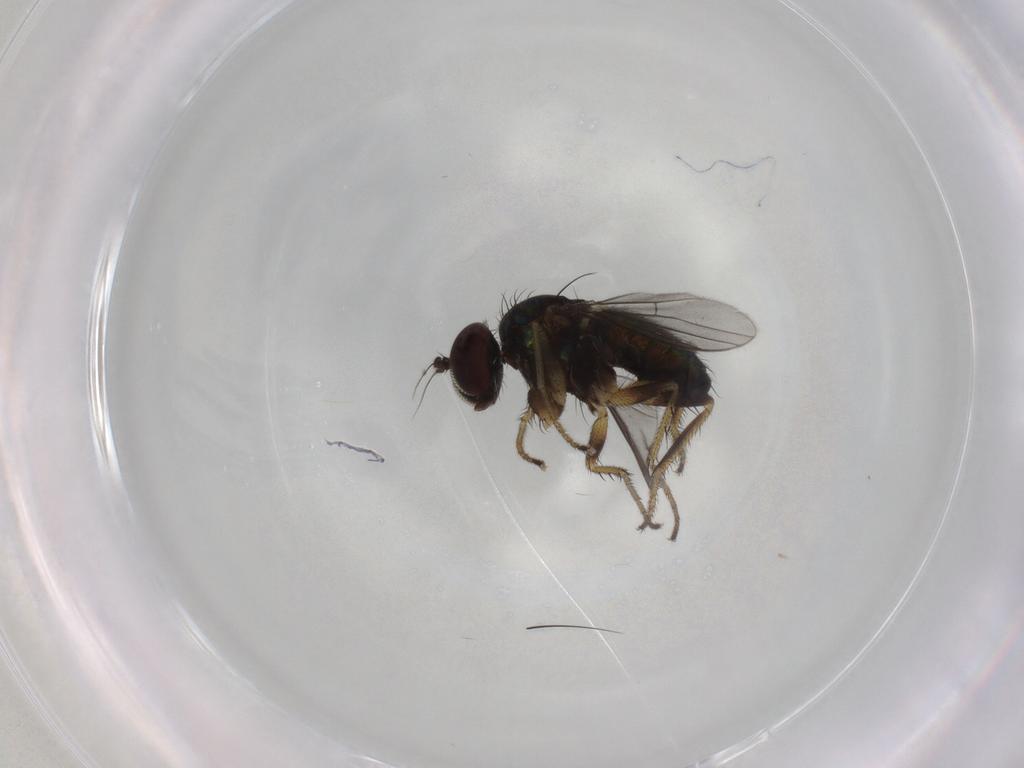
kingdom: Animalia
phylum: Arthropoda
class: Insecta
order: Diptera
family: Dolichopodidae
